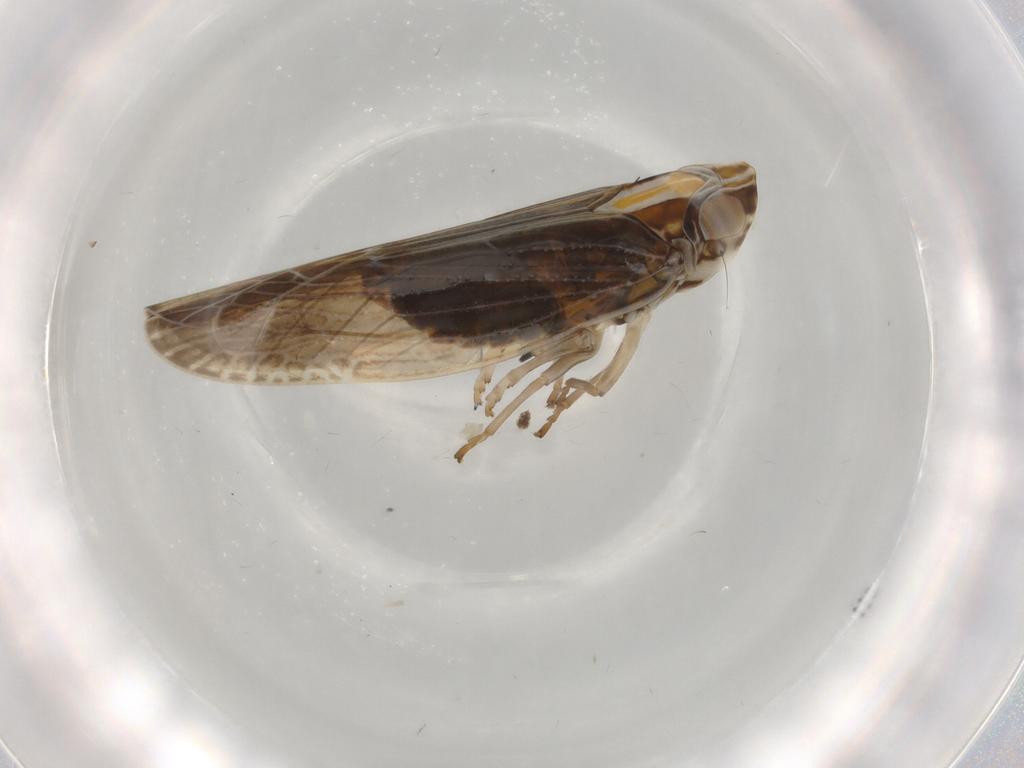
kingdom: Animalia
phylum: Arthropoda
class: Insecta
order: Hemiptera
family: Achilidae
